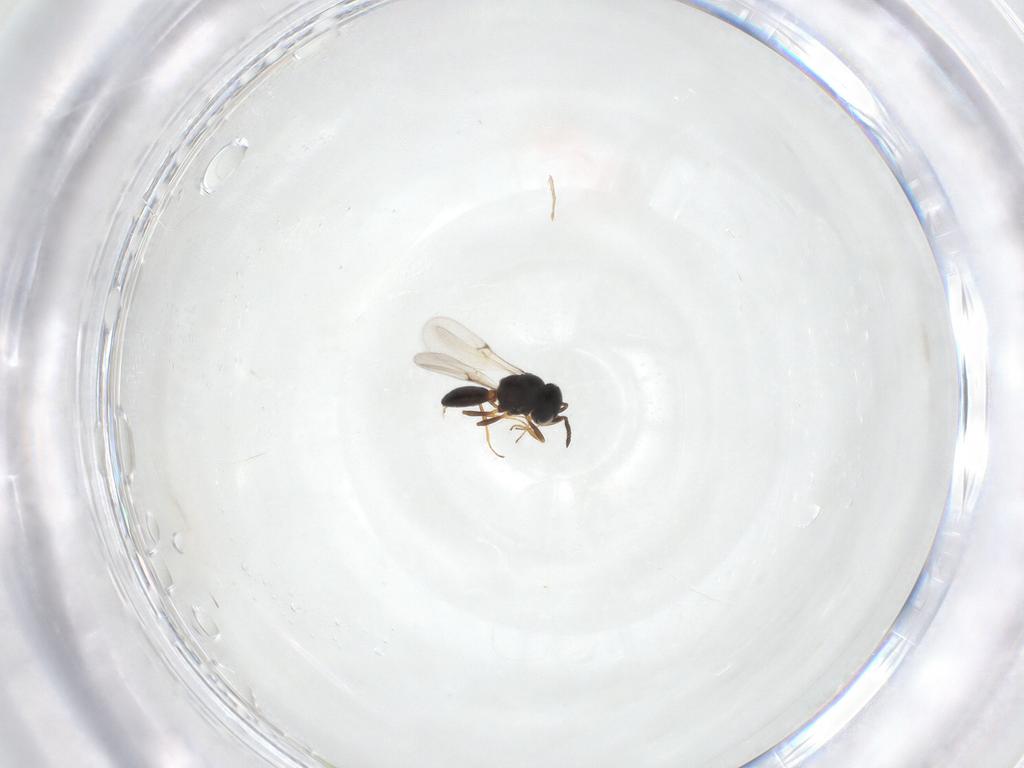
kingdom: Animalia
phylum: Arthropoda
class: Arachnida
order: Araneae
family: Pholcidae
